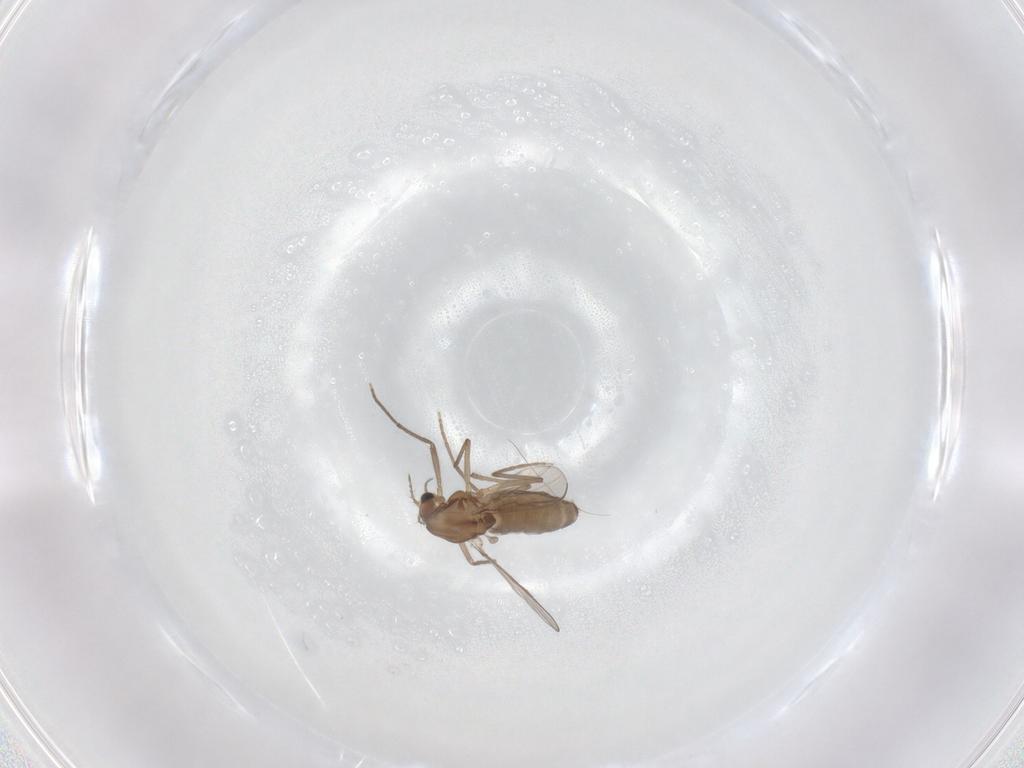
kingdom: Animalia
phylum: Arthropoda
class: Insecta
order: Diptera
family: Chironomidae
